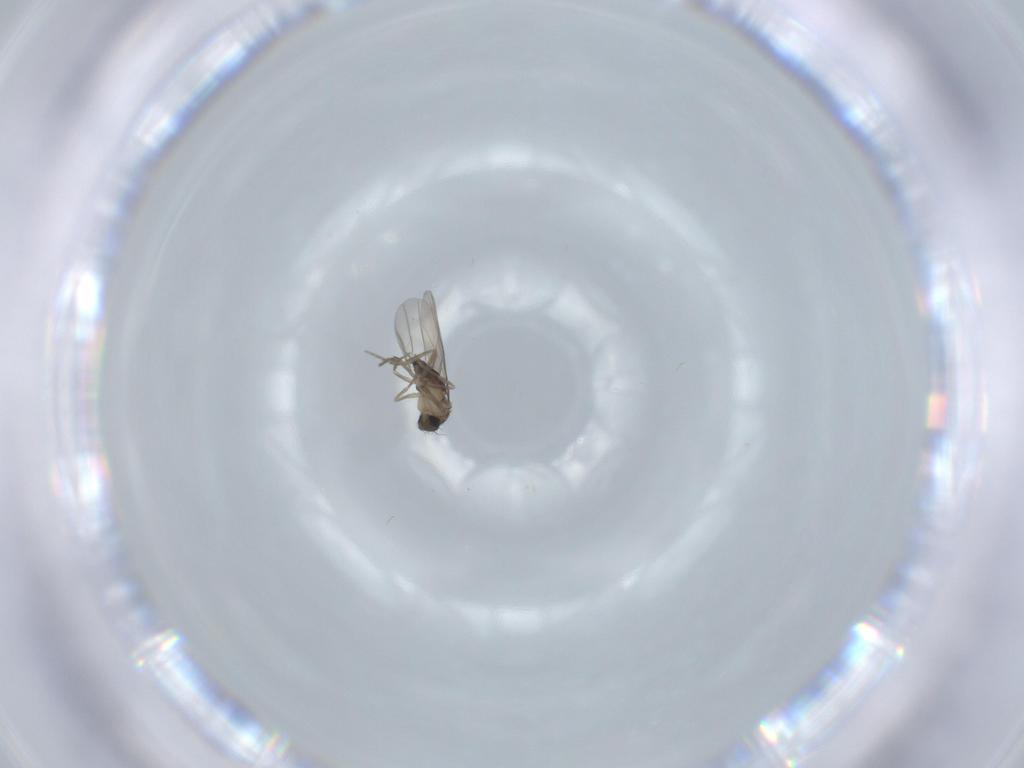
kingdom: Animalia
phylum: Arthropoda
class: Insecta
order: Diptera
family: Phoridae
